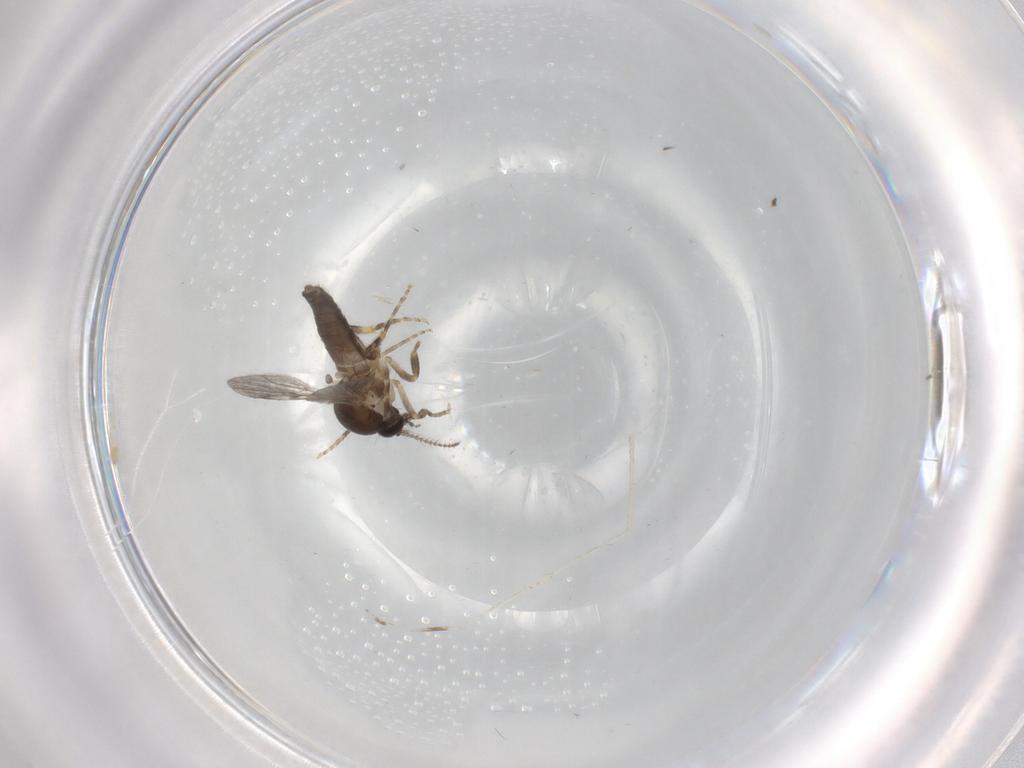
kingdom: Animalia
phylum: Arthropoda
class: Insecta
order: Diptera
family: Ceratopogonidae
